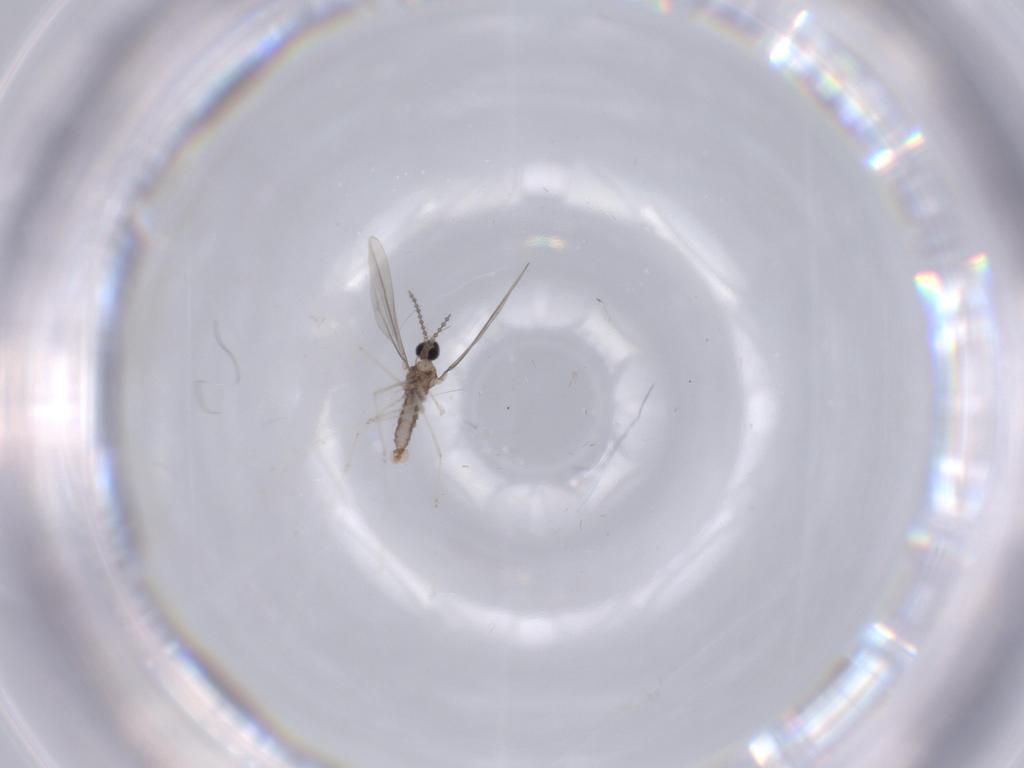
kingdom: Animalia
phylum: Arthropoda
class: Insecta
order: Diptera
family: Cecidomyiidae
